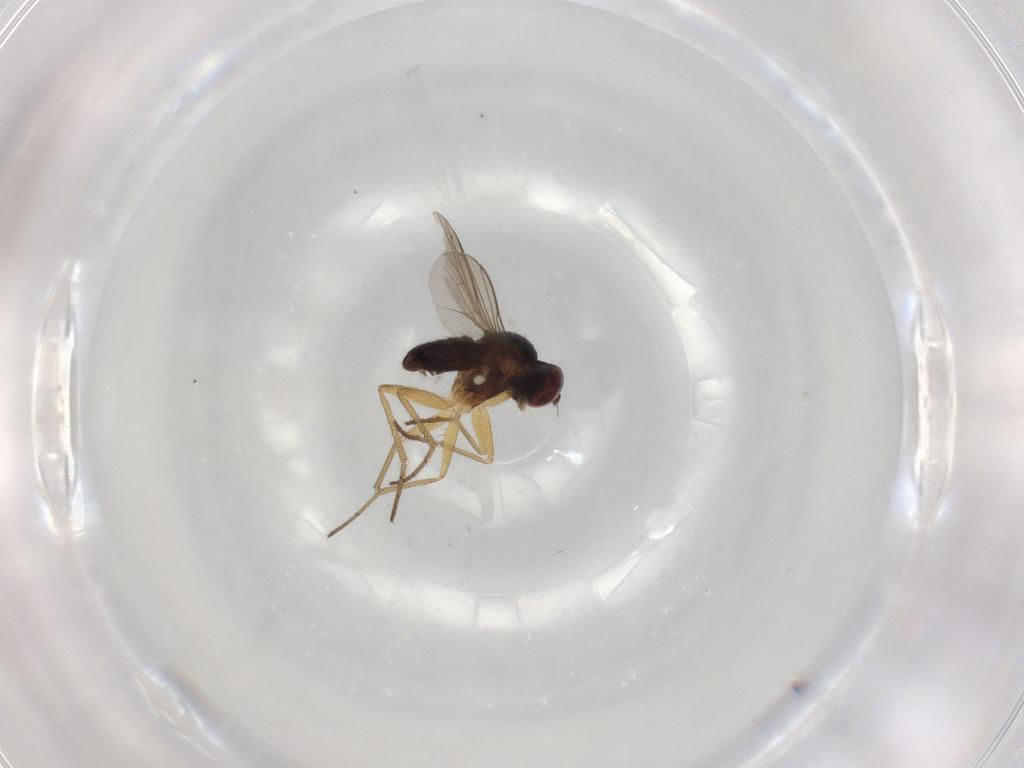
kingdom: Animalia
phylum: Arthropoda
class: Insecta
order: Diptera
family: Dolichopodidae
